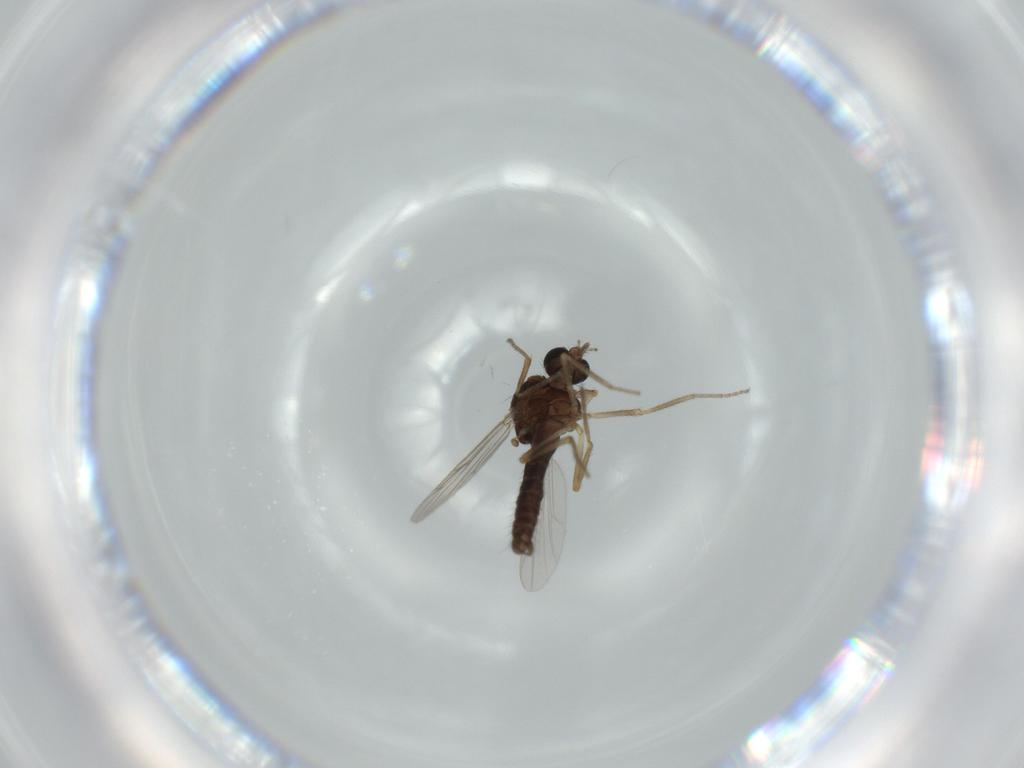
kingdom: Animalia
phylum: Arthropoda
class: Insecta
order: Diptera
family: Ceratopogonidae
